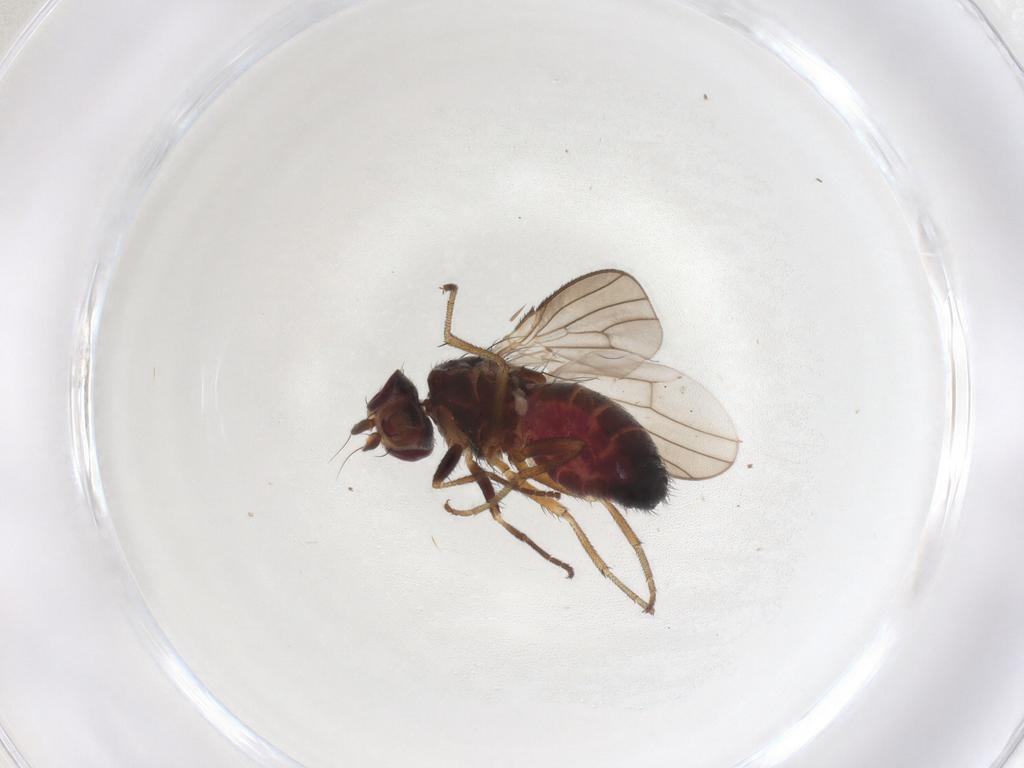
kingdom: Animalia
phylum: Arthropoda
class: Insecta
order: Diptera
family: Heleomyzidae
